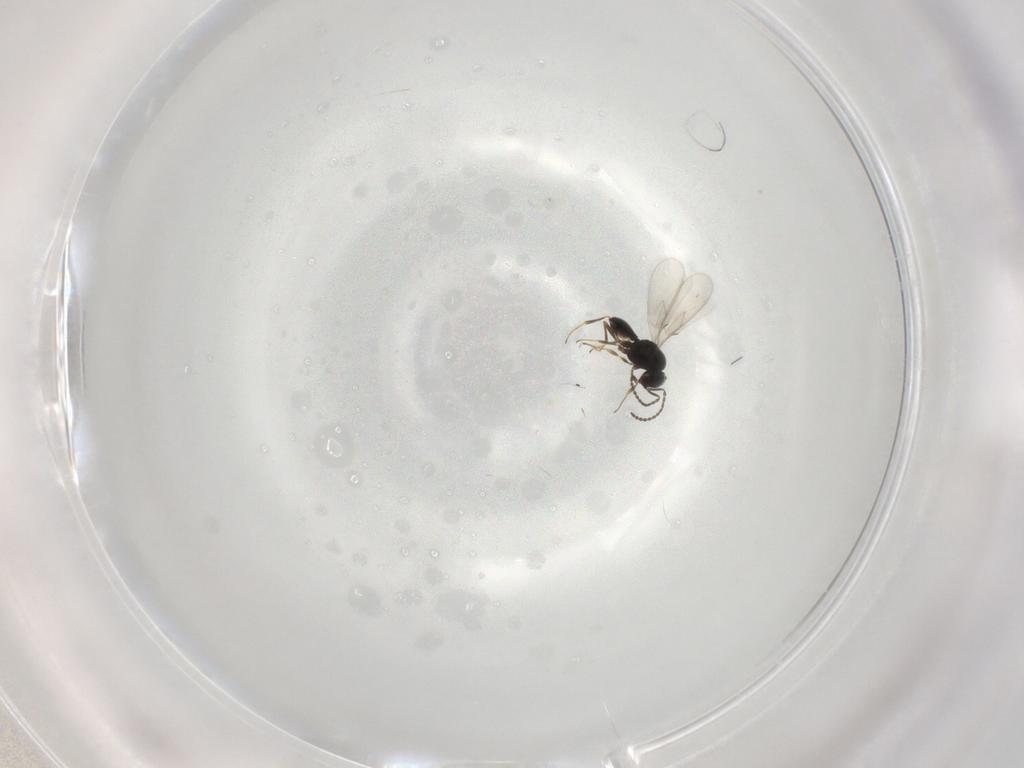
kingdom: Animalia
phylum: Arthropoda
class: Insecta
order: Hymenoptera
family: Scelionidae
